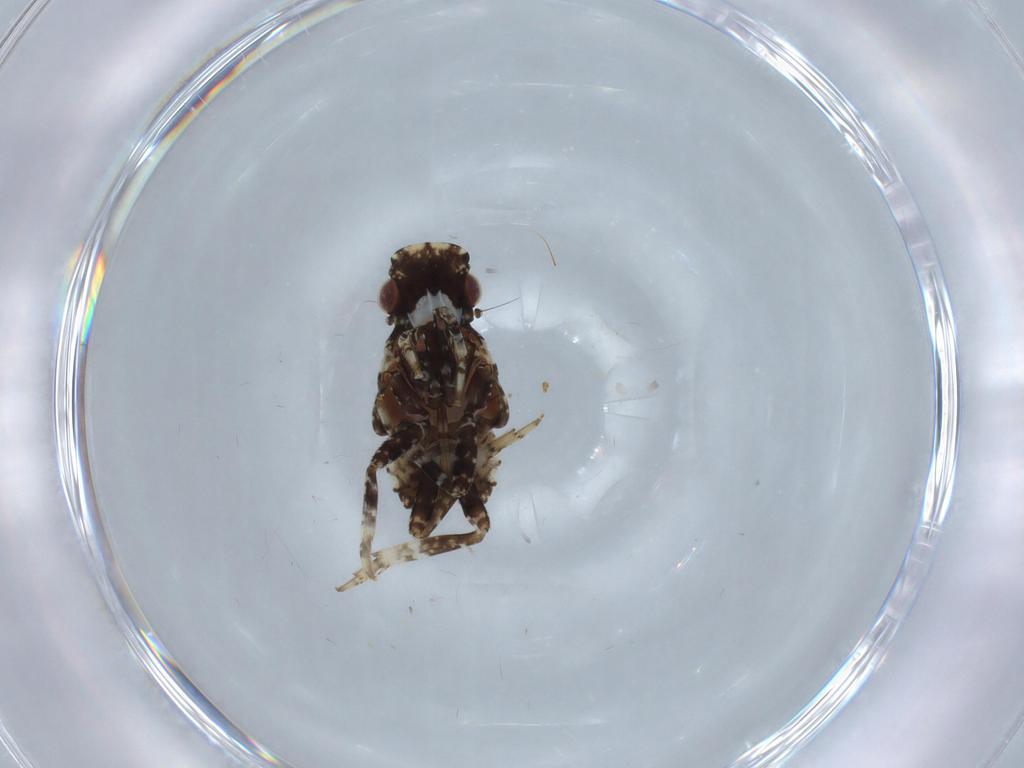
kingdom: Animalia
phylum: Arthropoda
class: Insecta
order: Hemiptera
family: Fulgoridae
